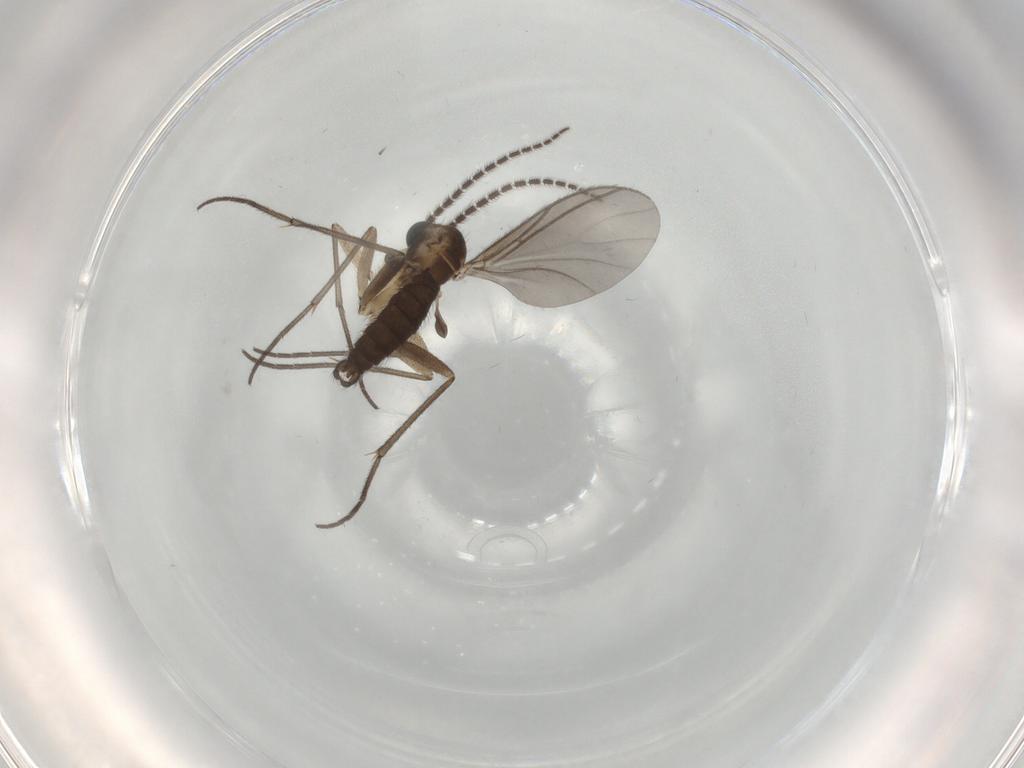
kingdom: Animalia
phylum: Arthropoda
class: Insecta
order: Diptera
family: Sciaridae
